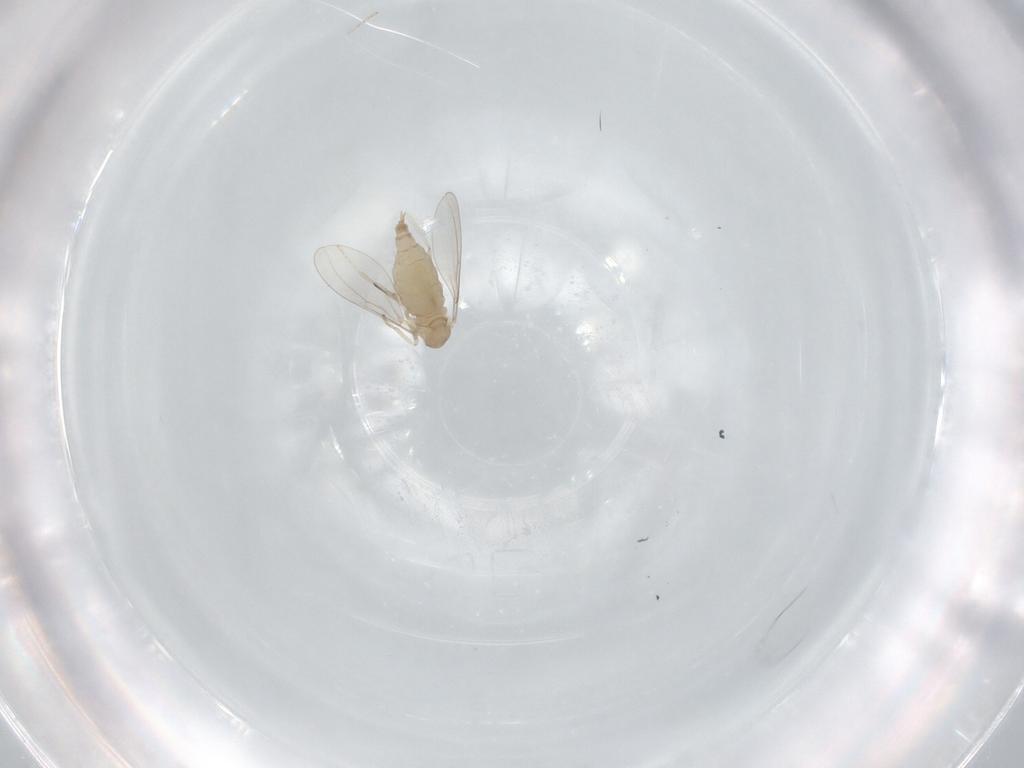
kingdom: Animalia
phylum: Arthropoda
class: Insecta
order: Diptera
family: Cecidomyiidae
